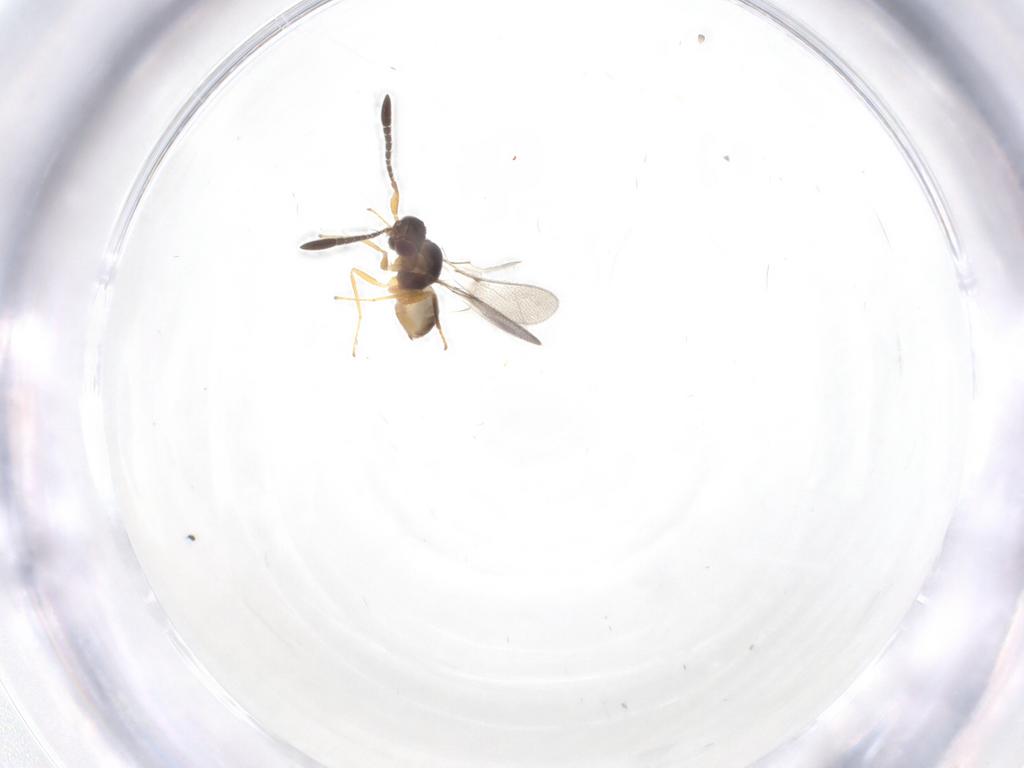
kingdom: Animalia
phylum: Arthropoda
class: Insecta
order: Hymenoptera
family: Formicidae
